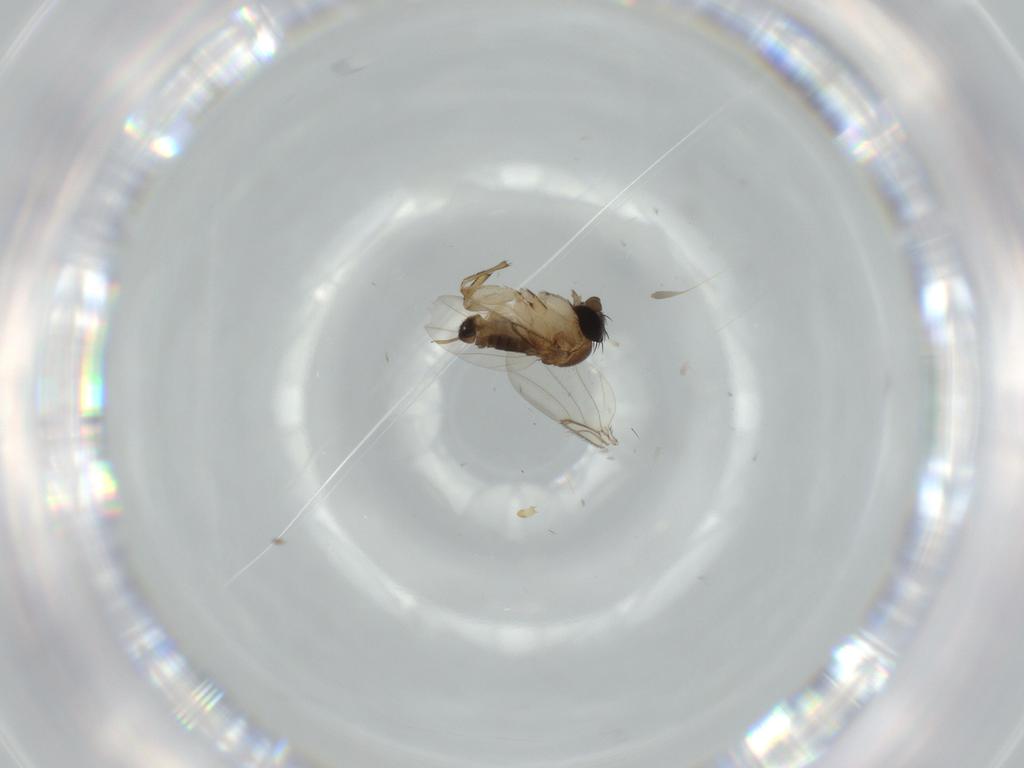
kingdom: Animalia
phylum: Arthropoda
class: Insecta
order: Diptera
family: Phoridae
